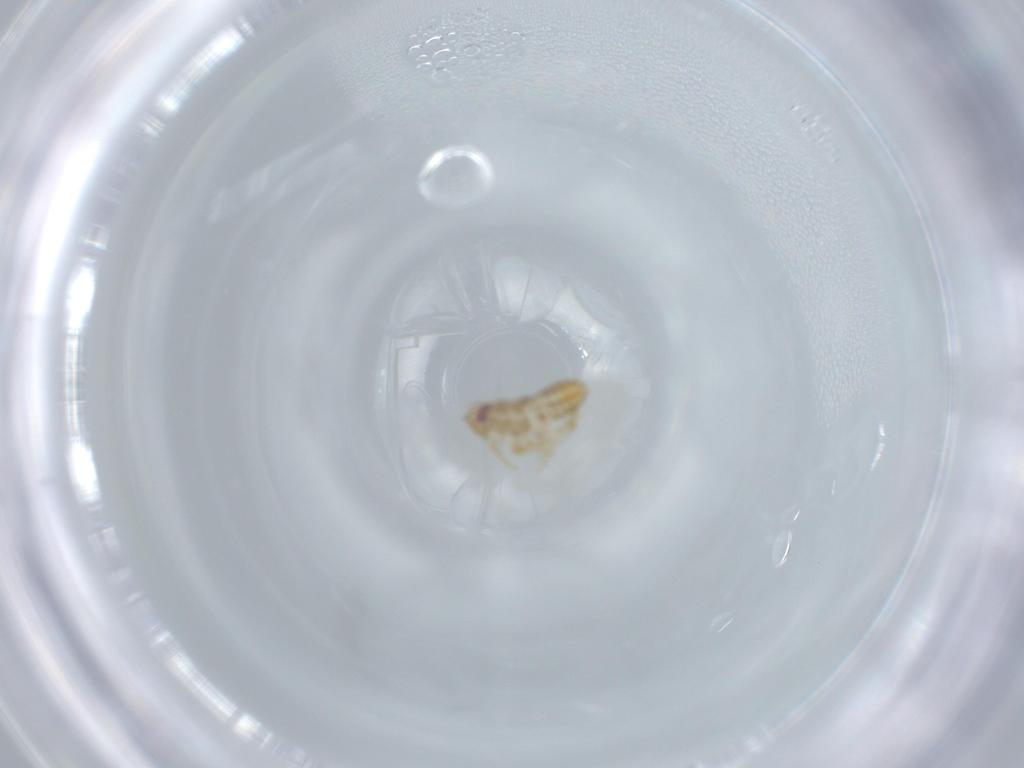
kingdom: Animalia
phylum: Arthropoda
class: Insecta
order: Hemiptera
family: Delphacidae
